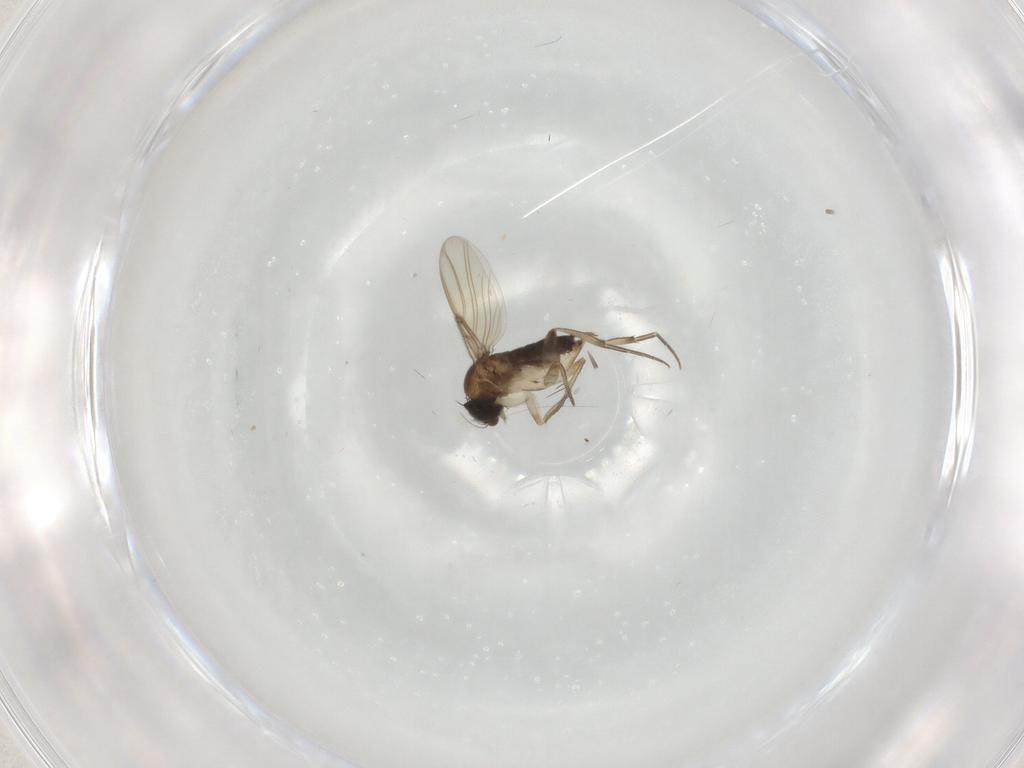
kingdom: Animalia
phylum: Arthropoda
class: Insecta
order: Diptera
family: Phoridae
